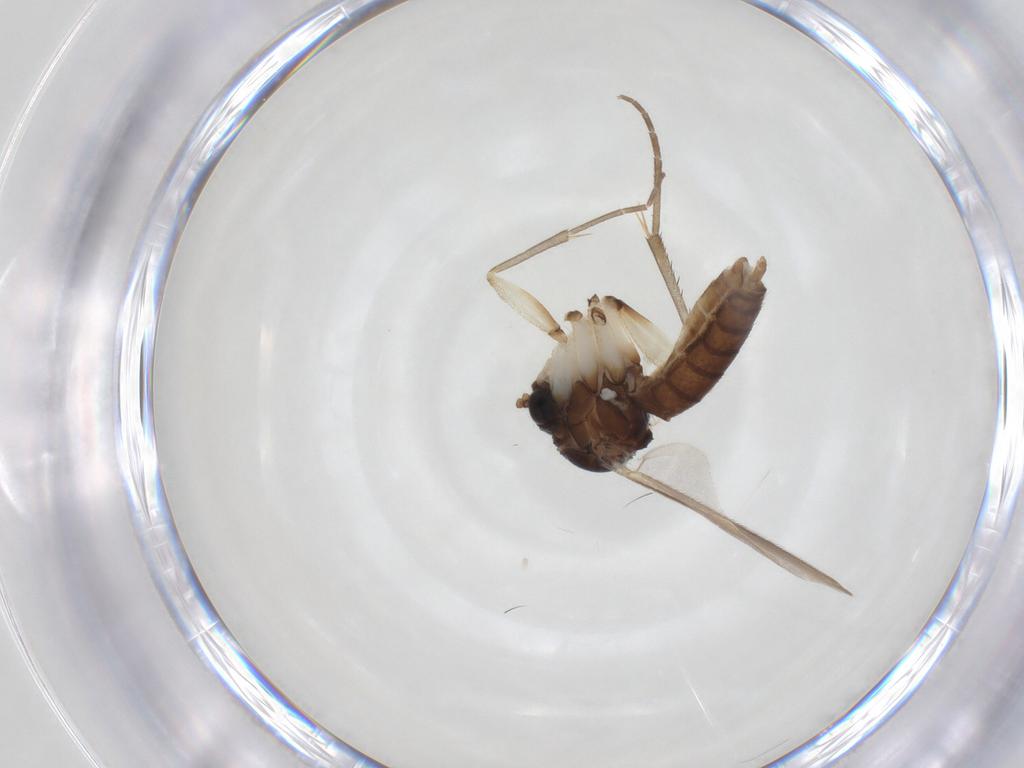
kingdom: Animalia
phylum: Arthropoda
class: Insecta
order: Diptera
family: Mycetophilidae
